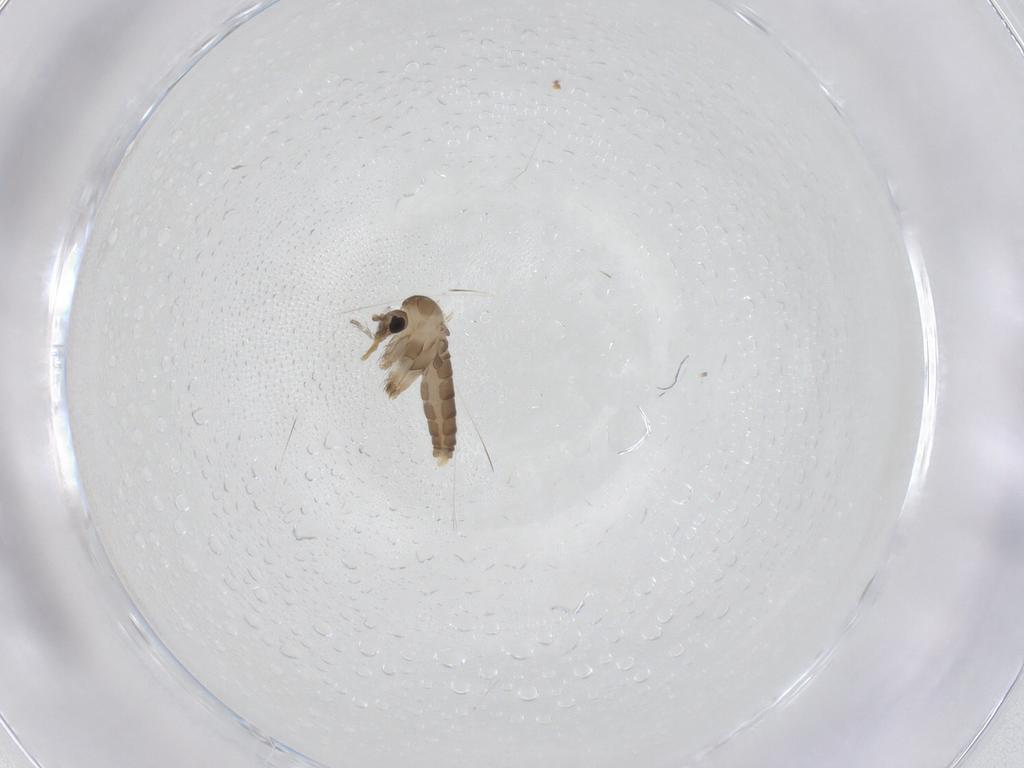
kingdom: Animalia
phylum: Arthropoda
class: Insecta
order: Diptera
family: Psychodidae
